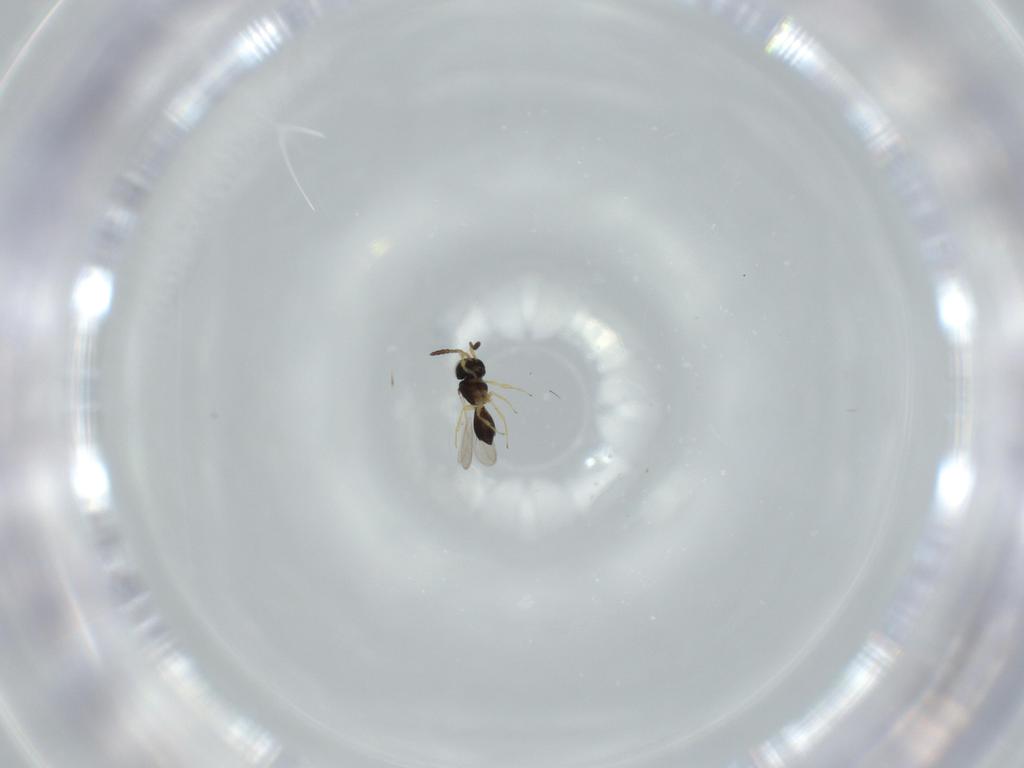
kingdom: Animalia
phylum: Arthropoda
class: Insecta
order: Hymenoptera
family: Scelionidae
